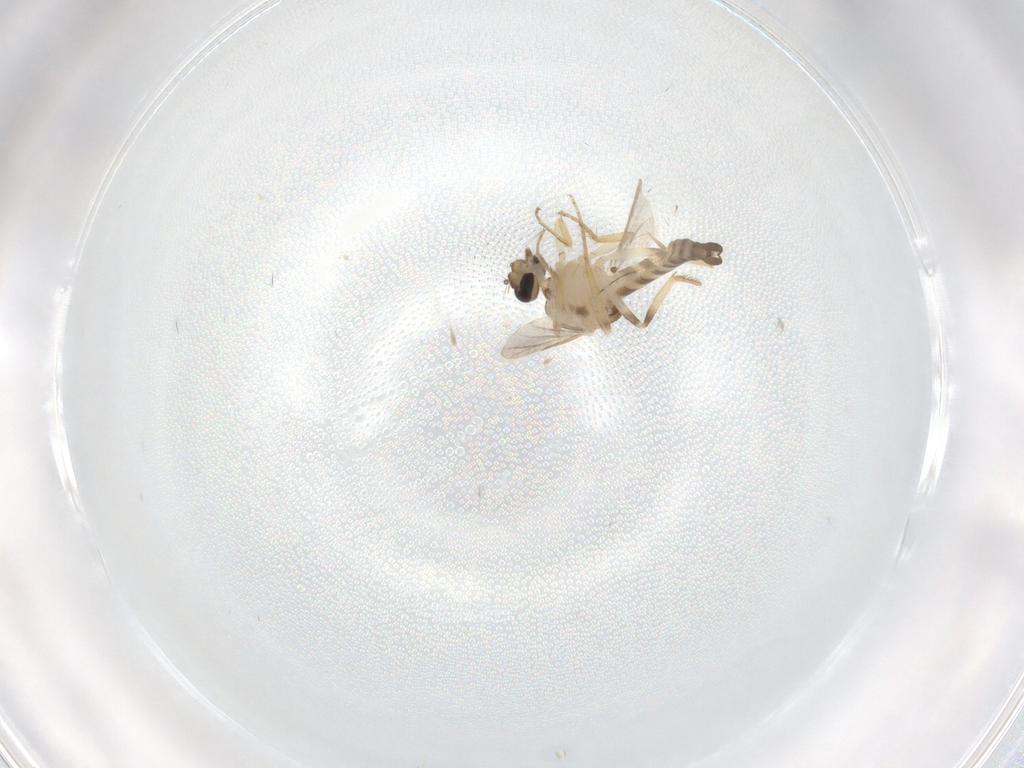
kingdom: Animalia
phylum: Arthropoda
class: Insecta
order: Diptera
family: Ceratopogonidae
